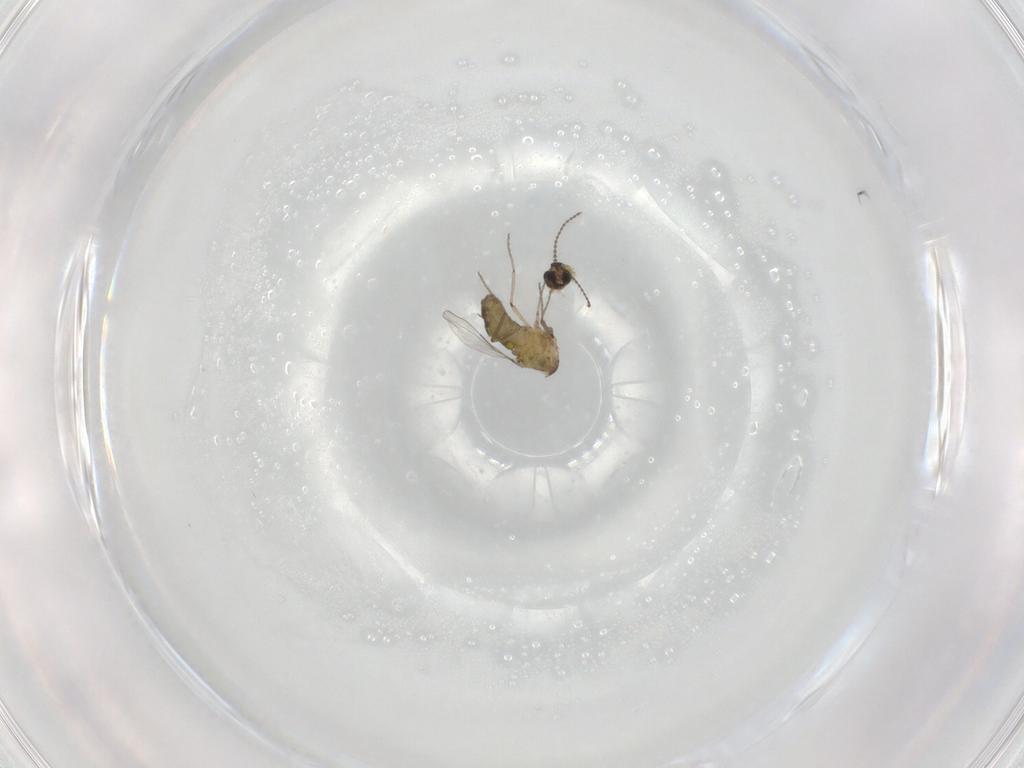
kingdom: Animalia
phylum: Arthropoda
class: Insecta
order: Diptera
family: Ceratopogonidae
